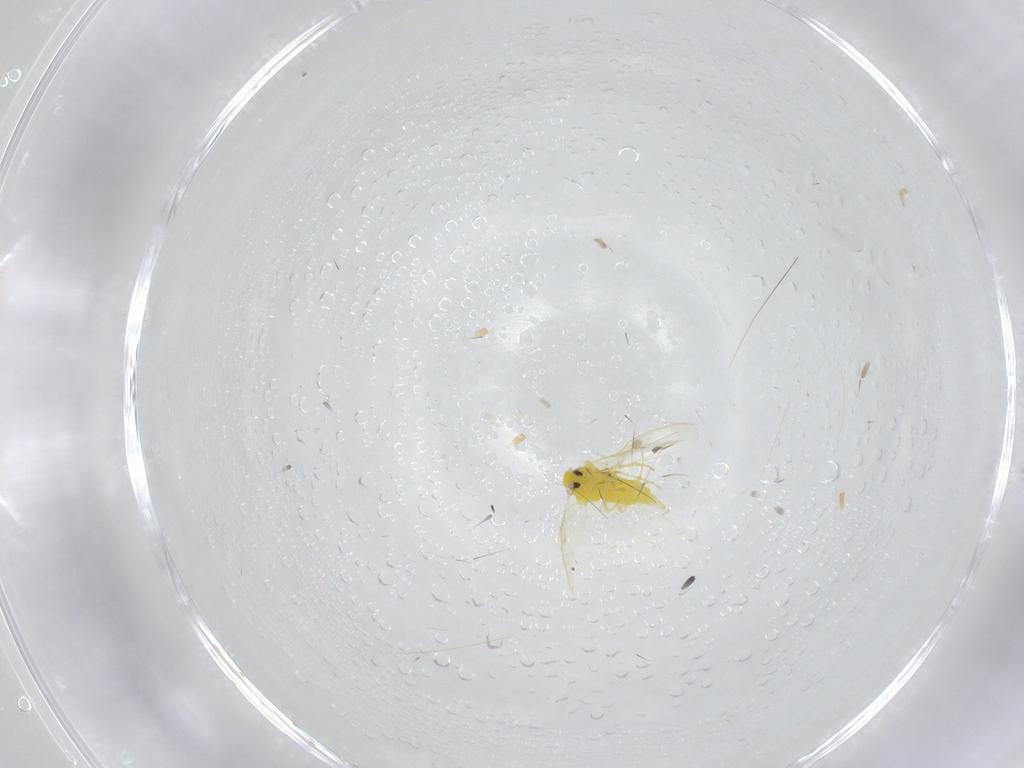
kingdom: Animalia
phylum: Arthropoda
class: Insecta
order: Hemiptera
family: Aleyrodidae
